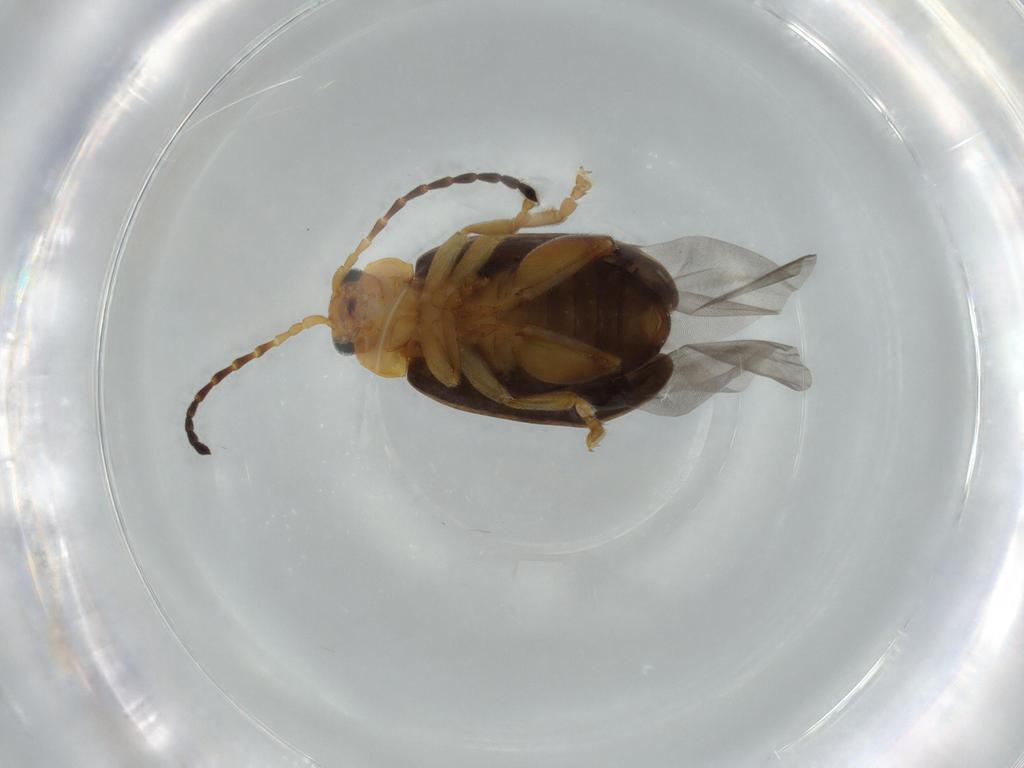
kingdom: Animalia
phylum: Arthropoda
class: Insecta
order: Coleoptera
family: Chrysomelidae
